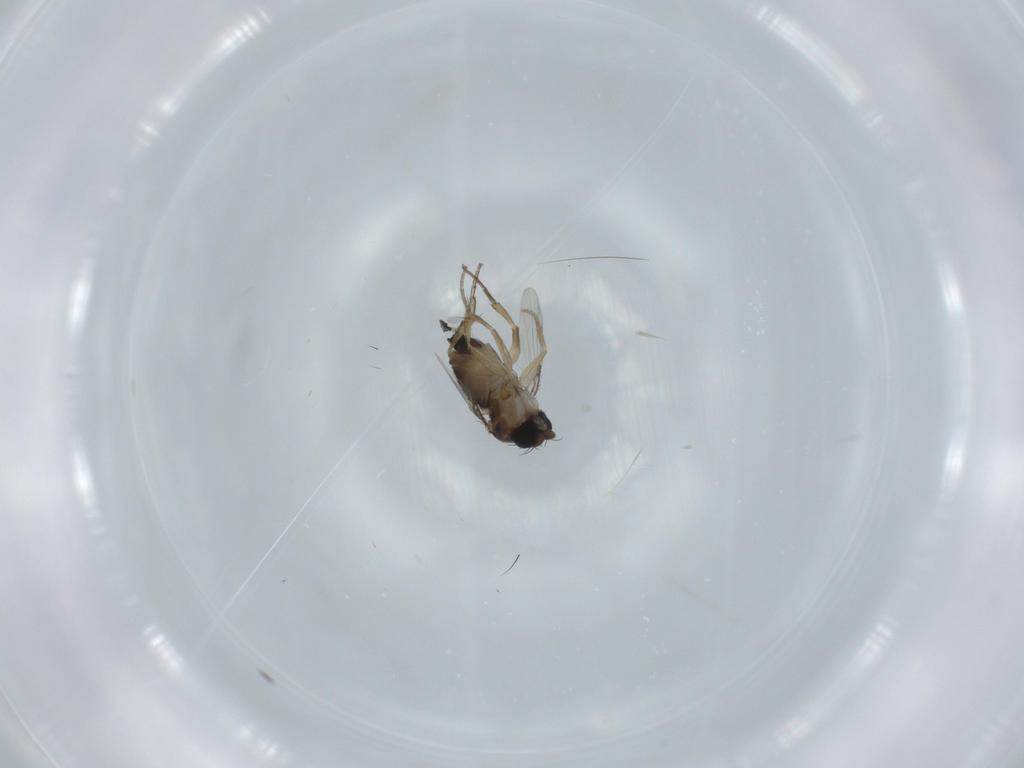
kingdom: Animalia
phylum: Arthropoda
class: Insecta
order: Diptera
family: Phoridae
